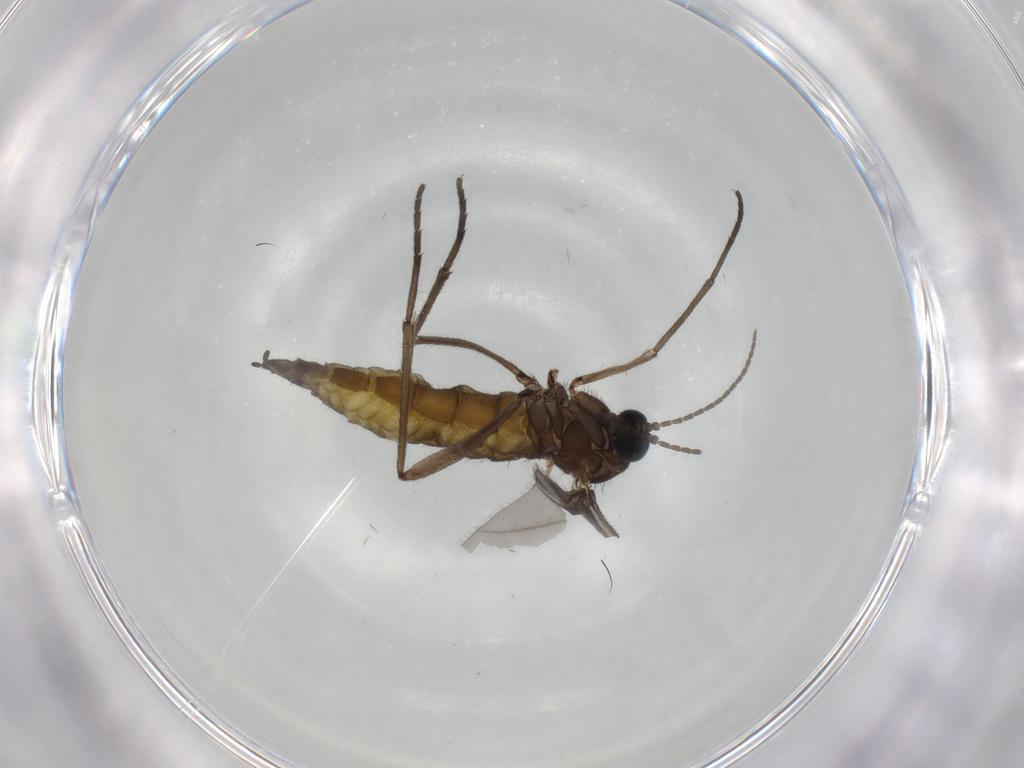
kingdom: Animalia
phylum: Arthropoda
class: Insecta
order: Diptera
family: Sciaridae
